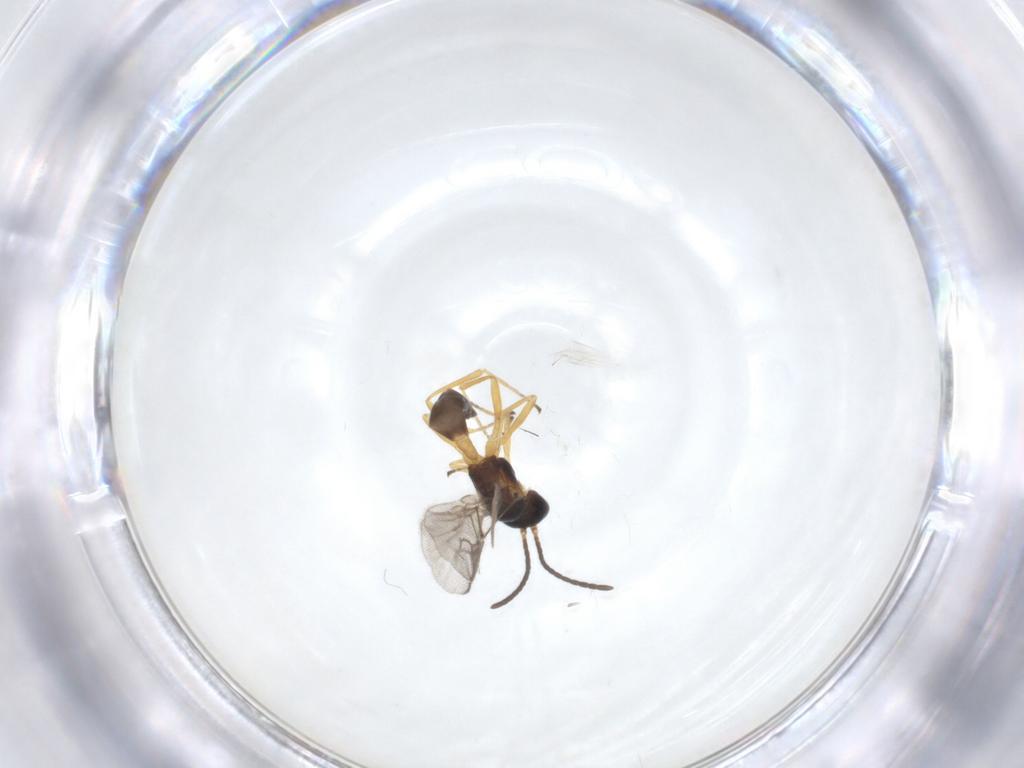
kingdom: Animalia
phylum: Arthropoda
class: Insecta
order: Hymenoptera
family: Braconidae
